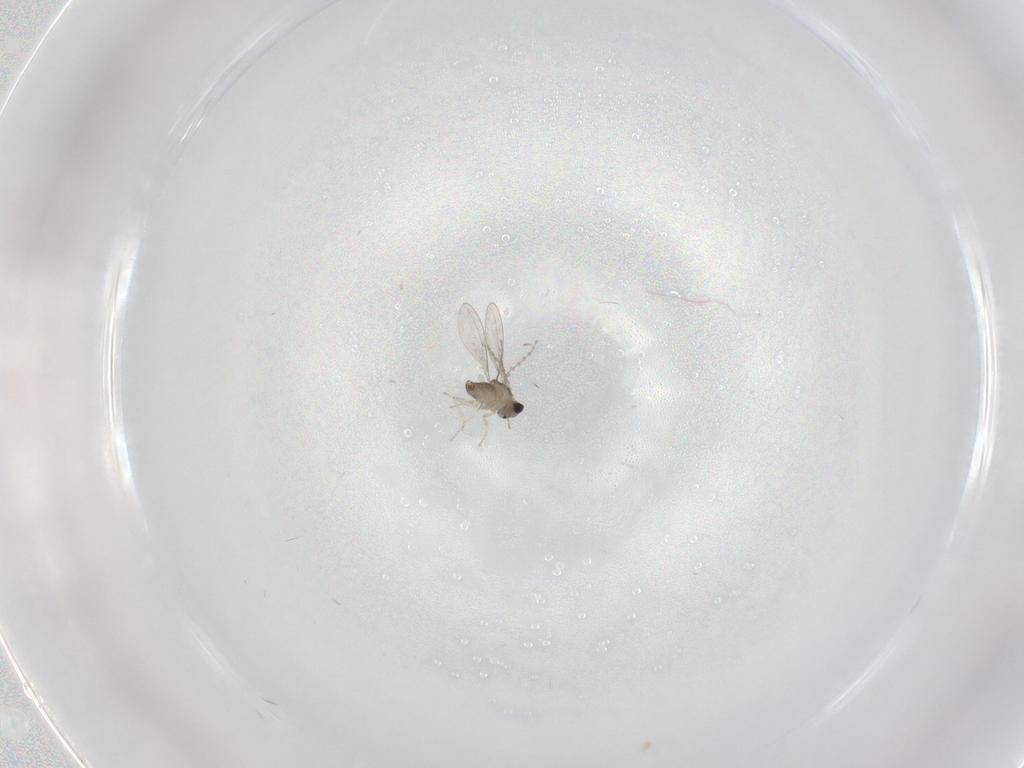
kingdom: Animalia
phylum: Arthropoda
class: Insecta
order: Diptera
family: Cecidomyiidae
